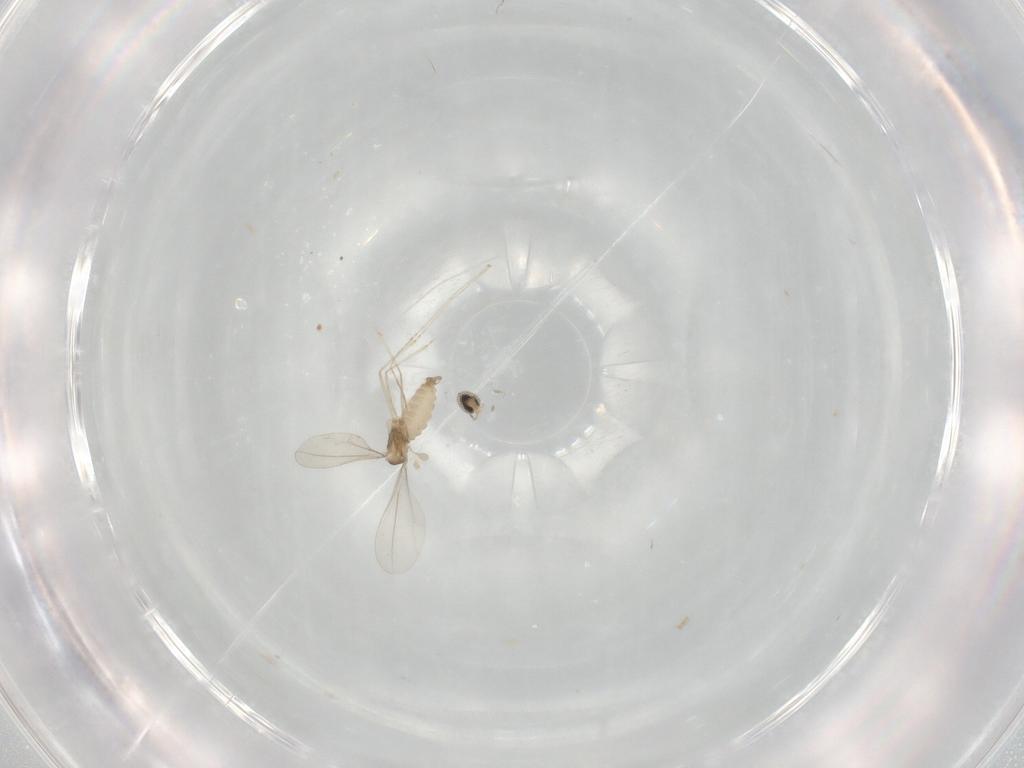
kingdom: Animalia
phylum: Arthropoda
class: Insecta
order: Diptera
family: Cecidomyiidae
